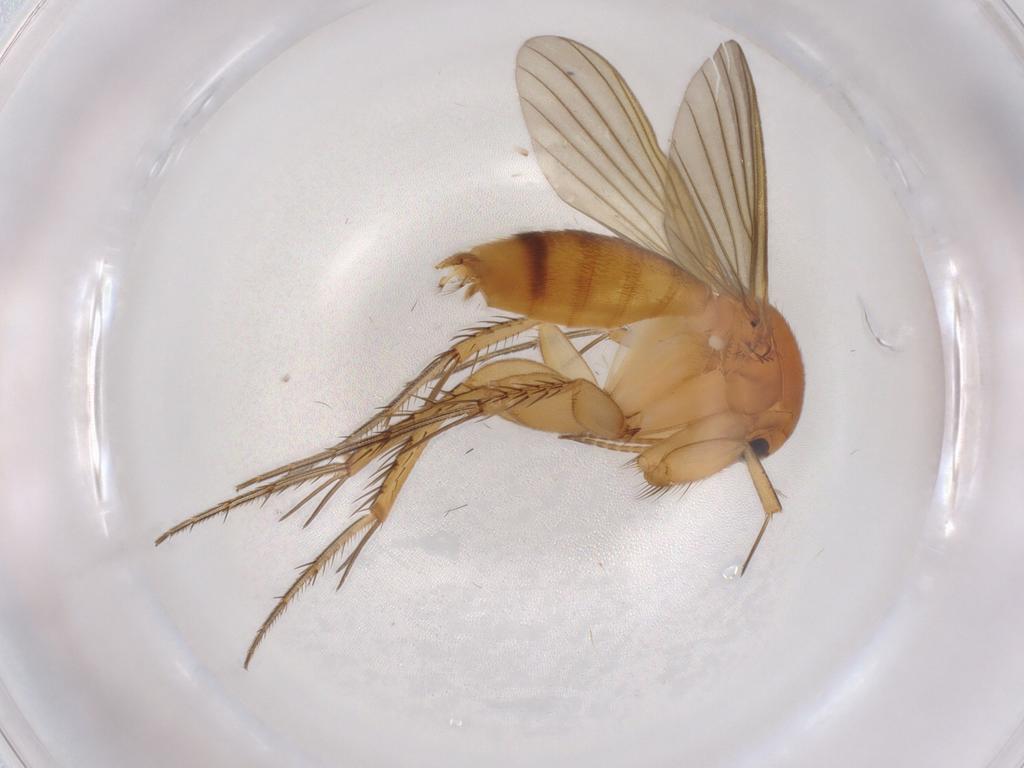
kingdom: Animalia
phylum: Arthropoda
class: Insecta
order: Diptera
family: Mycetophilidae
